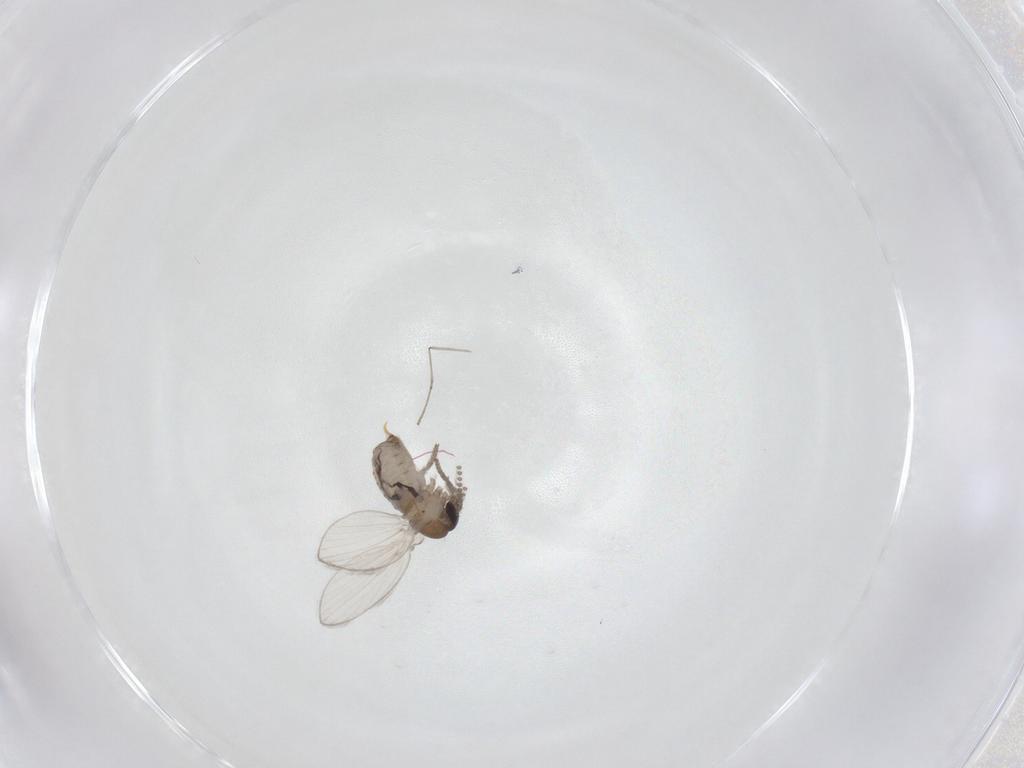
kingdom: Animalia
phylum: Arthropoda
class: Insecta
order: Diptera
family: Psychodidae
